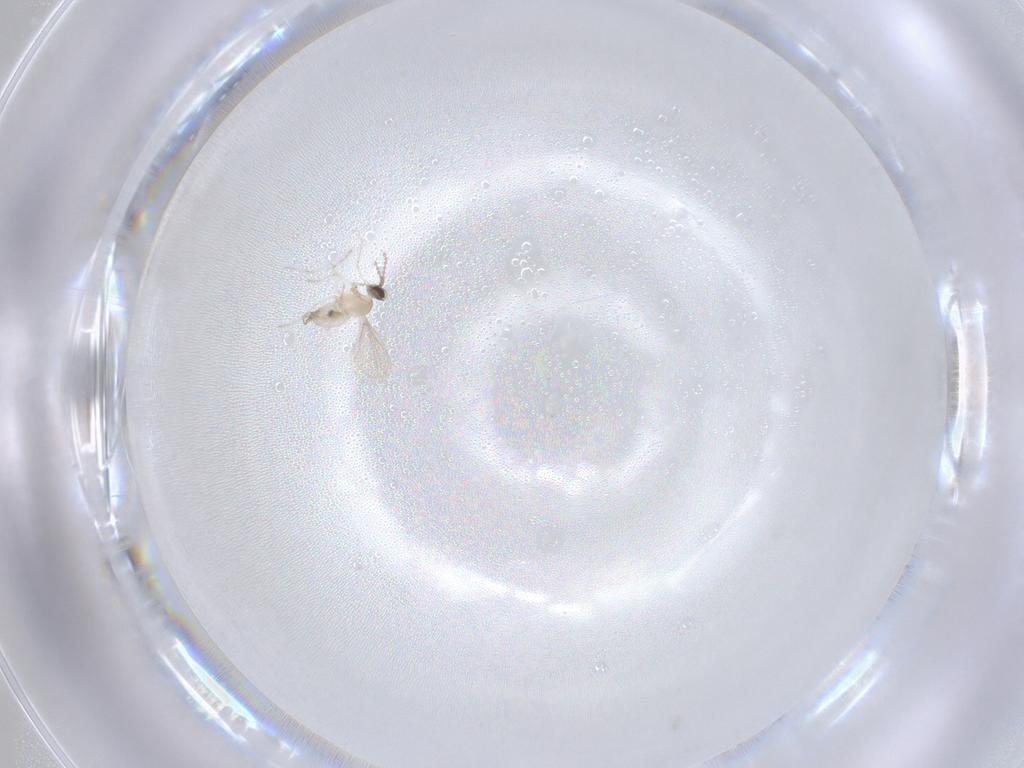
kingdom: Animalia
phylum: Arthropoda
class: Insecta
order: Diptera
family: Cecidomyiidae
